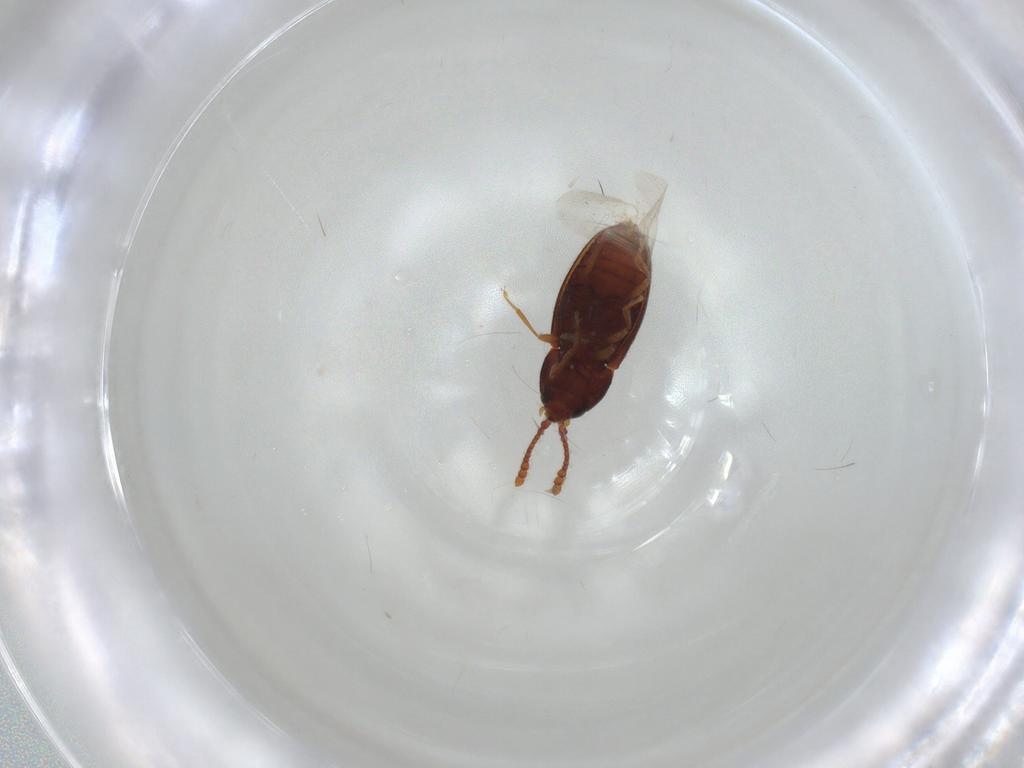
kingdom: Animalia
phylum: Arthropoda
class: Insecta
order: Coleoptera
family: Cryptophagidae
